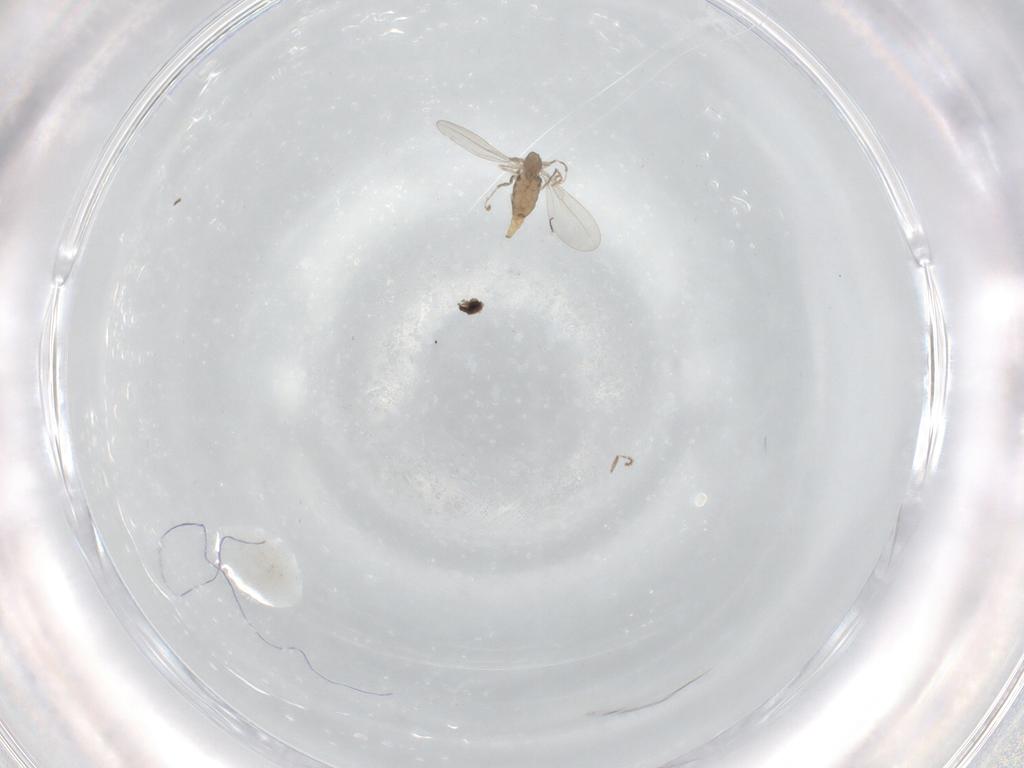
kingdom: Animalia
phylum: Arthropoda
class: Insecta
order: Diptera
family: Cecidomyiidae
